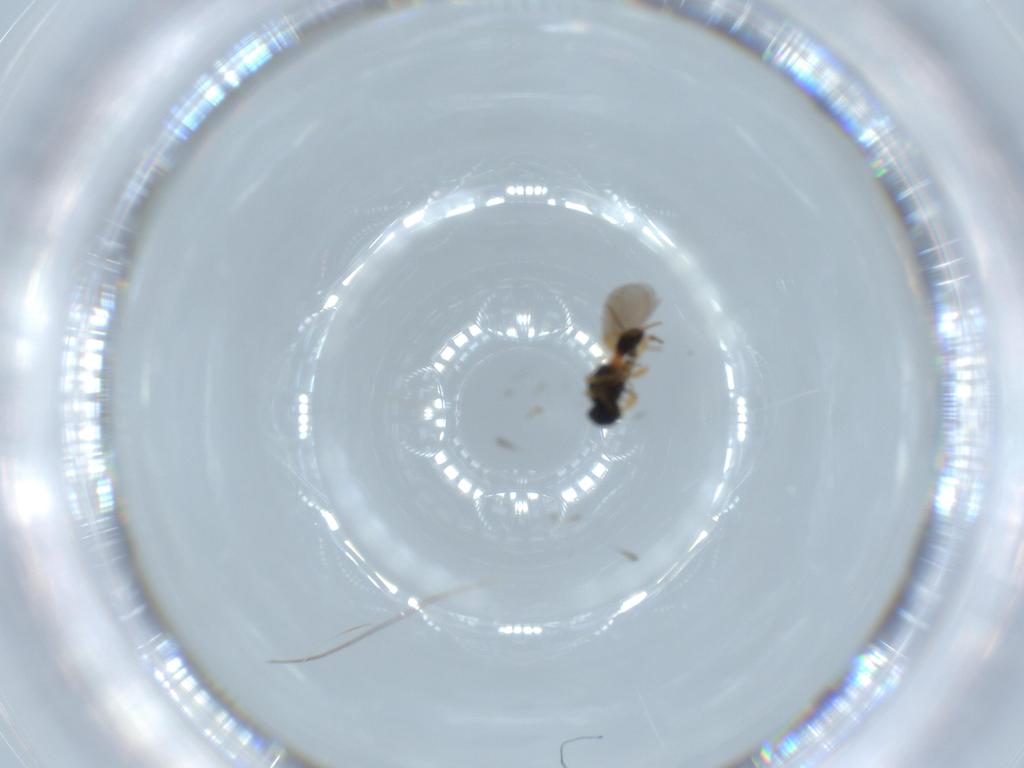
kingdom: Animalia
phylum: Arthropoda
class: Insecta
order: Hymenoptera
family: Platygastridae
